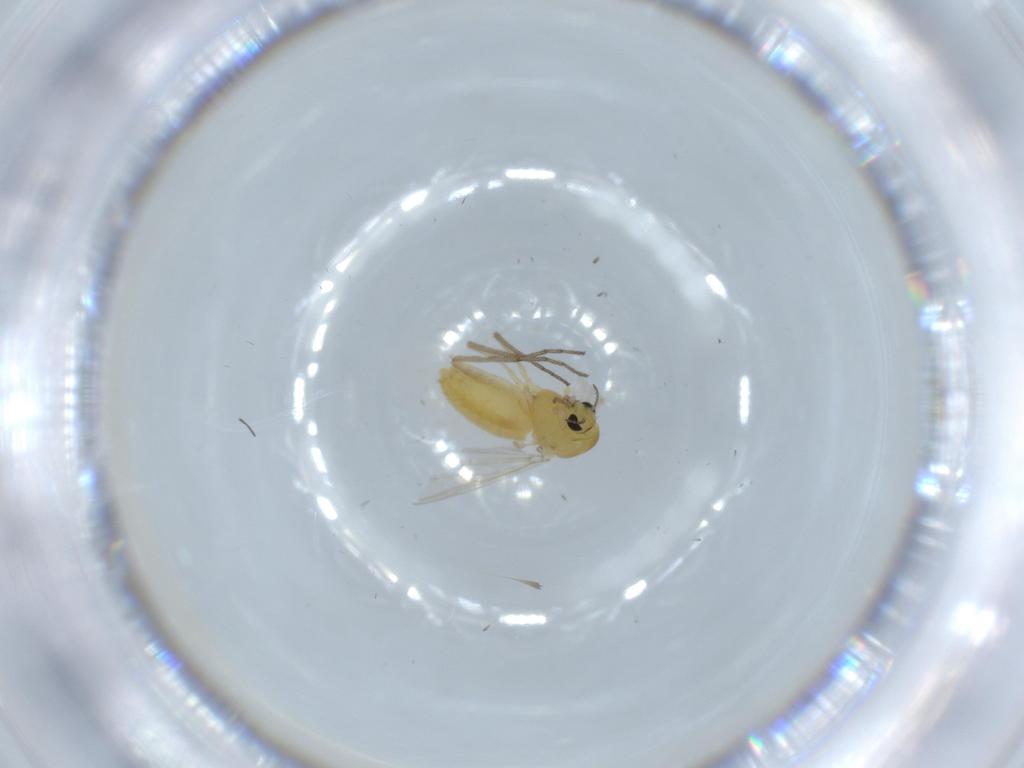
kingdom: Animalia
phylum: Arthropoda
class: Insecta
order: Diptera
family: Chironomidae
